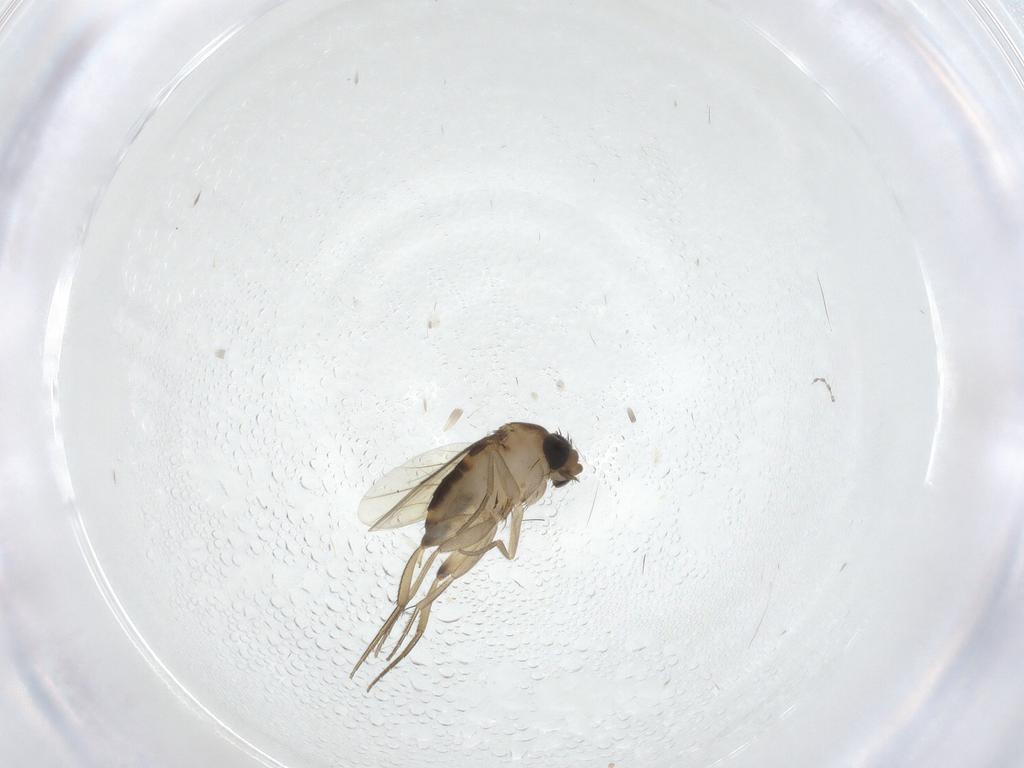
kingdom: Animalia
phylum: Arthropoda
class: Insecta
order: Diptera
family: Phoridae
